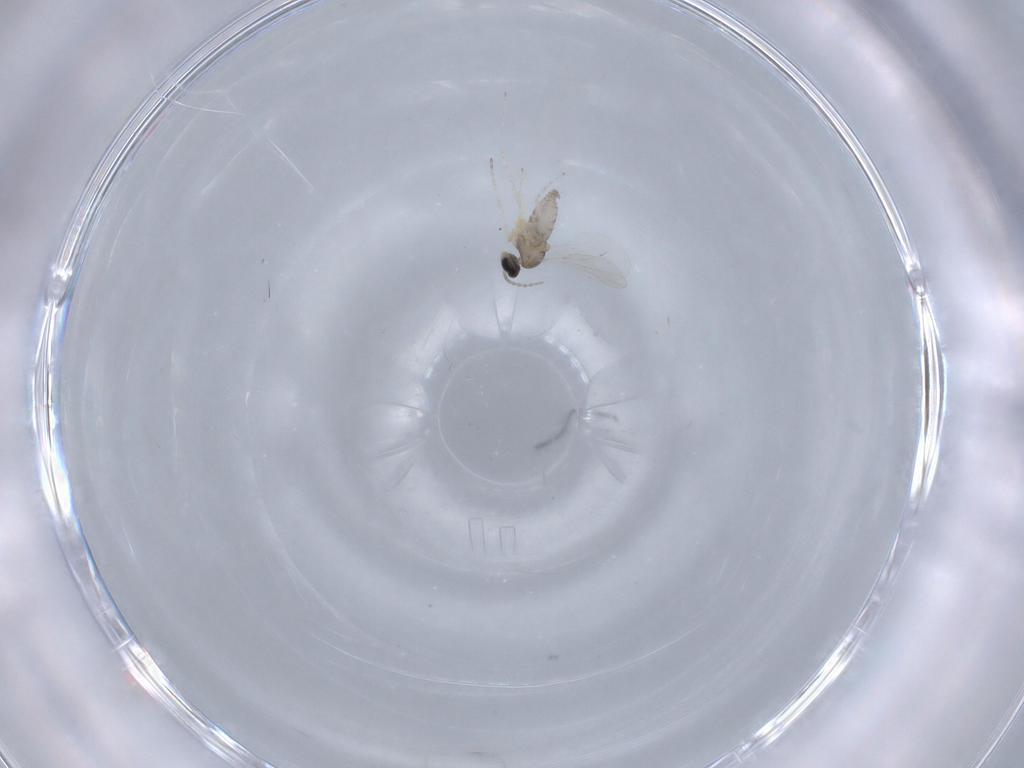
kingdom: Animalia
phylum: Arthropoda
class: Insecta
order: Diptera
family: Cecidomyiidae
